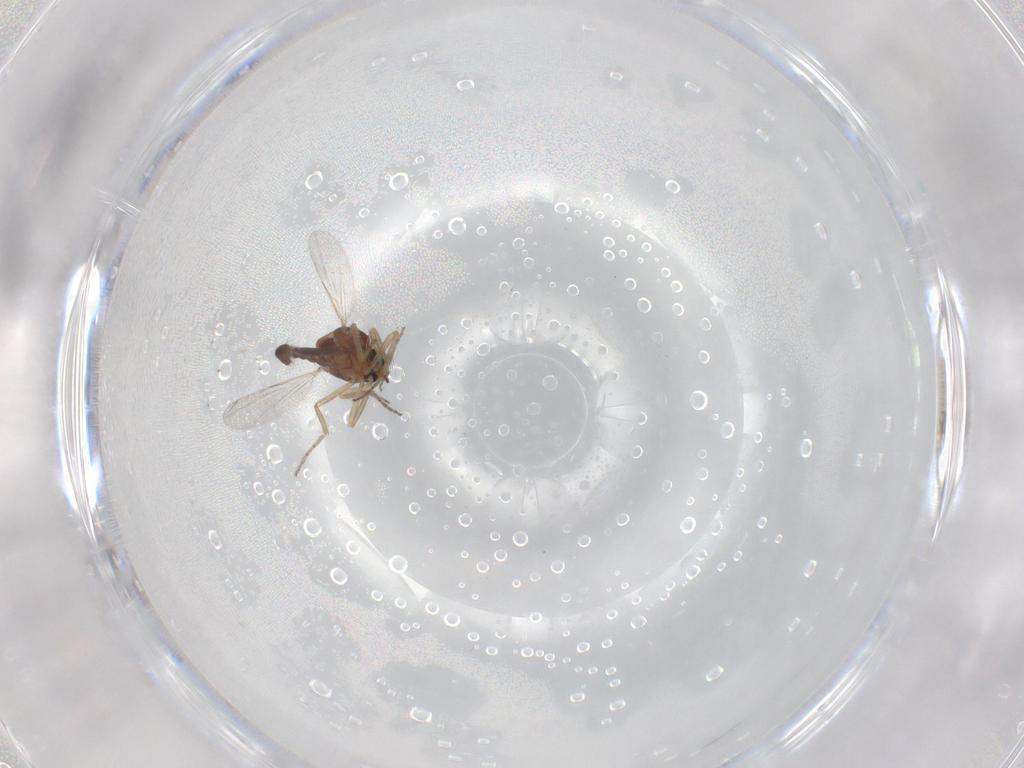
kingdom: Animalia
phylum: Arthropoda
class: Insecta
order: Diptera
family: Ceratopogonidae
